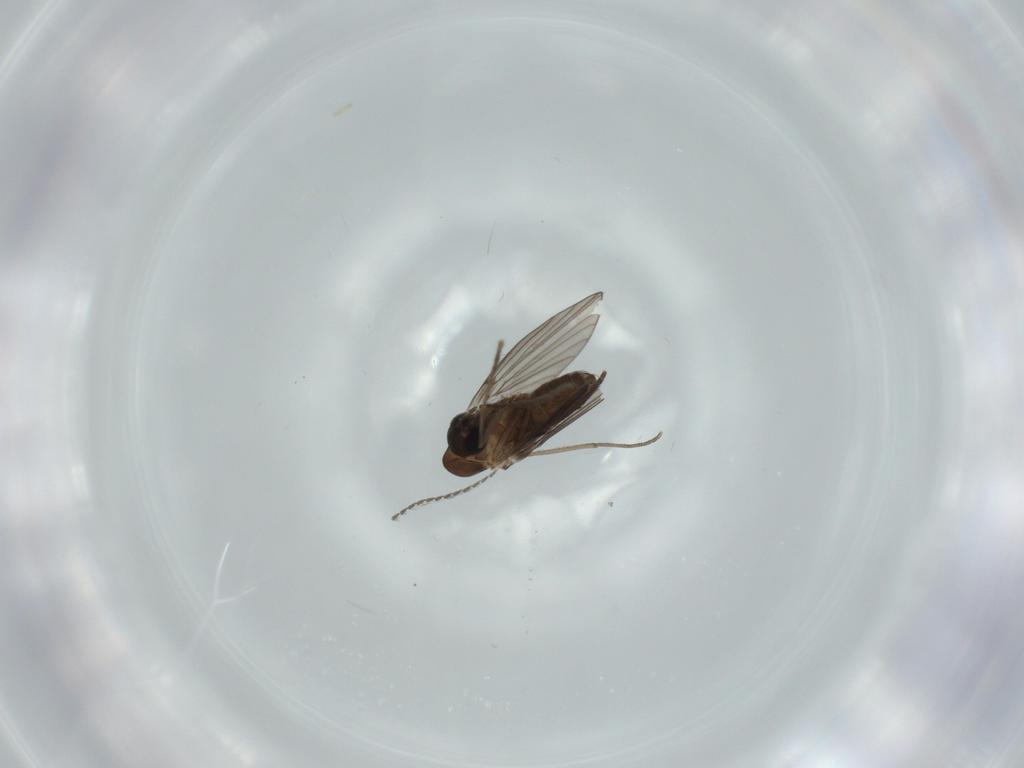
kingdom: Animalia
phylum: Arthropoda
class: Insecta
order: Diptera
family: Psychodidae
